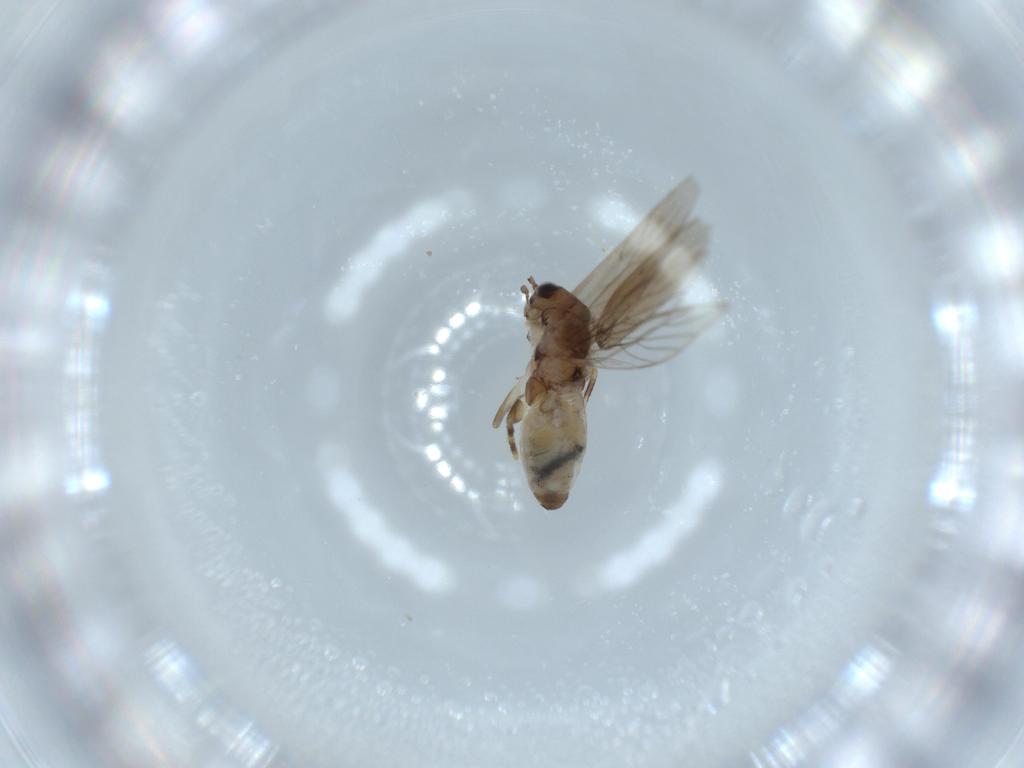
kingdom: Animalia
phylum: Arthropoda
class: Insecta
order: Psocodea
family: Lepidopsocidae
